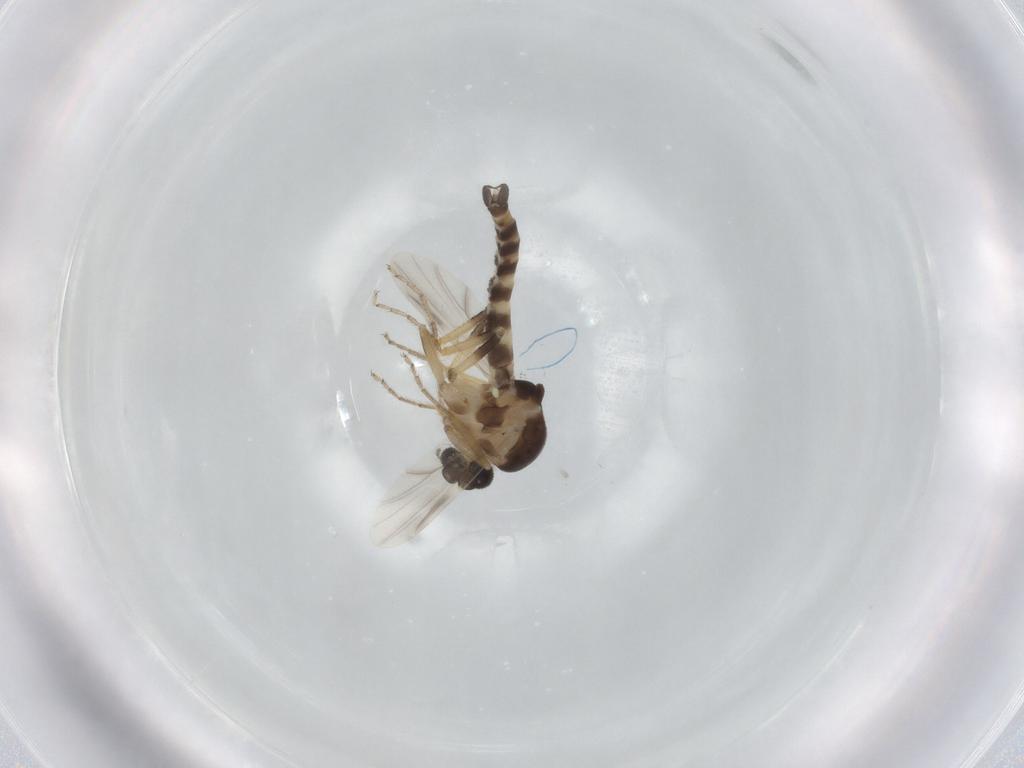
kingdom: Animalia
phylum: Arthropoda
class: Insecta
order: Diptera
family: Ceratopogonidae
